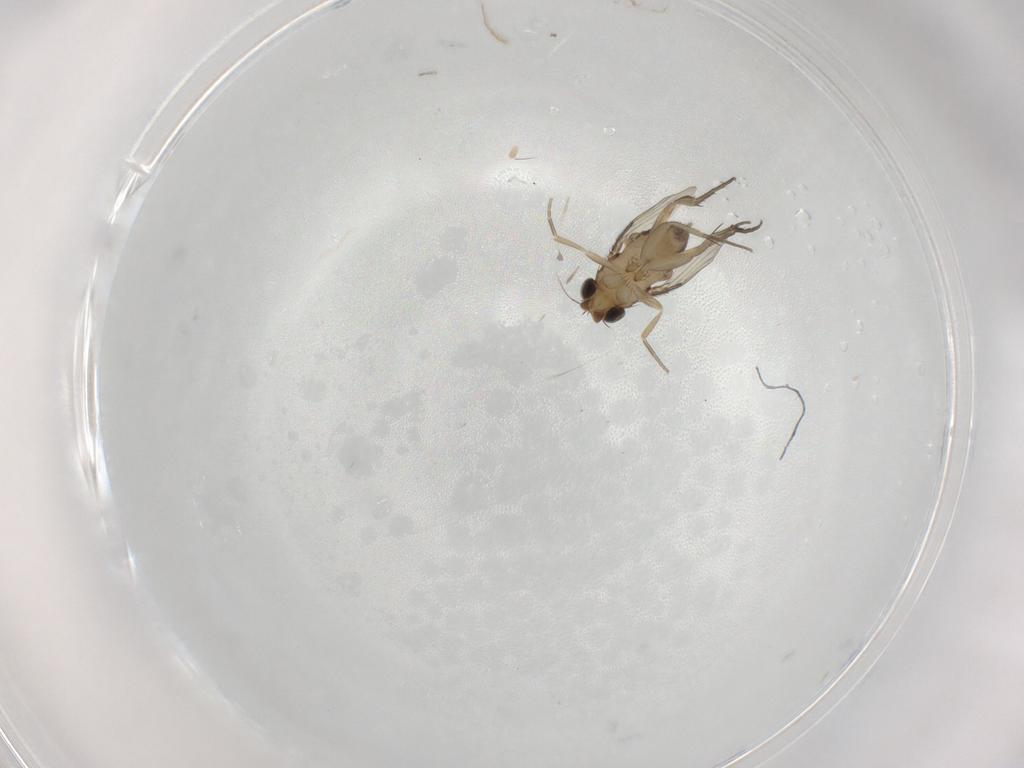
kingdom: Animalia
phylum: Arthropoda
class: Insecta
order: Diptera
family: Phoridae
